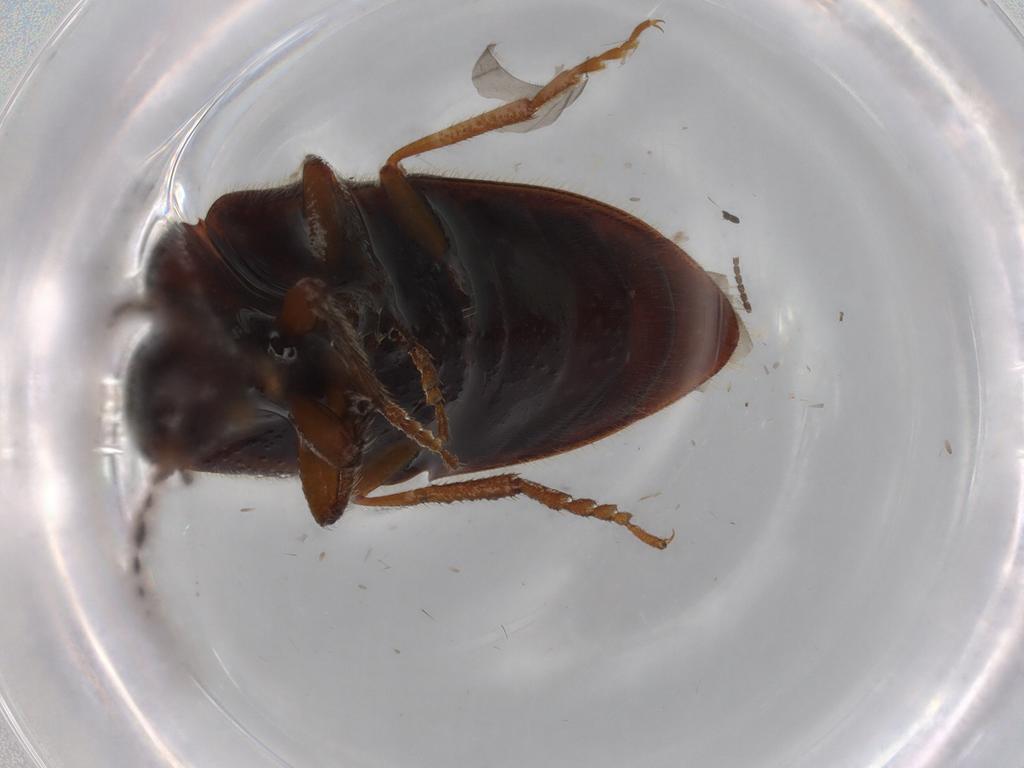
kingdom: Animalia
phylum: Arthropoda
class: Insecta
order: Coleoptera
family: Elateridae
